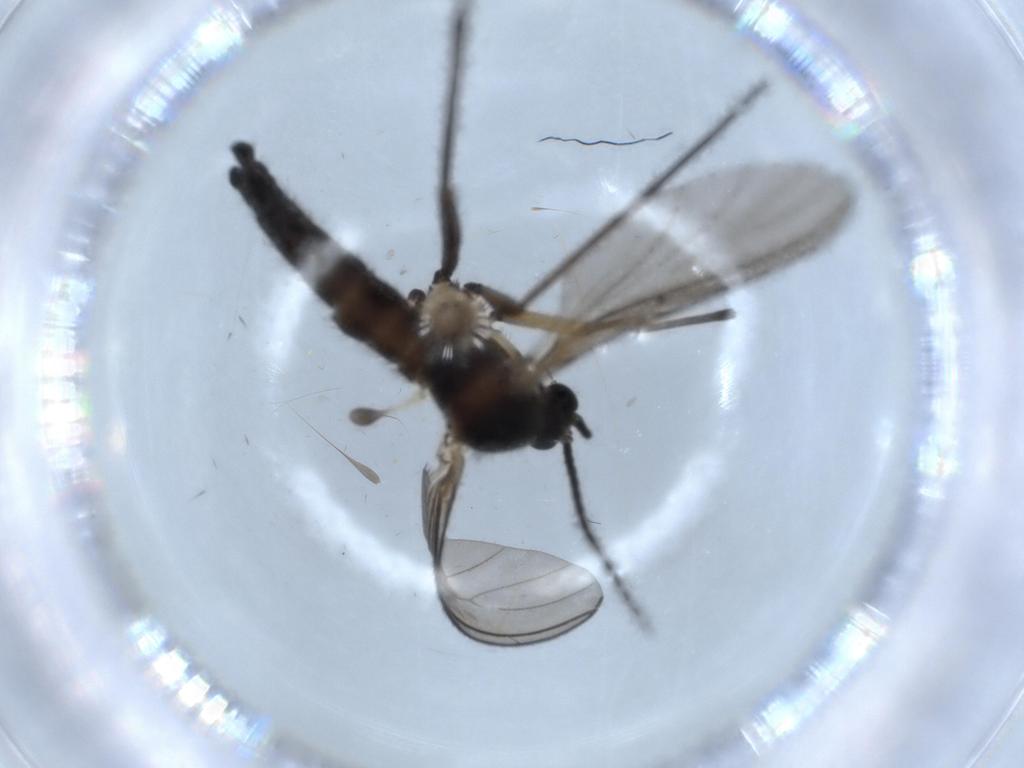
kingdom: Animalia
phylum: Arthropoda
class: Insecta
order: Diptera
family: Sciaridae
